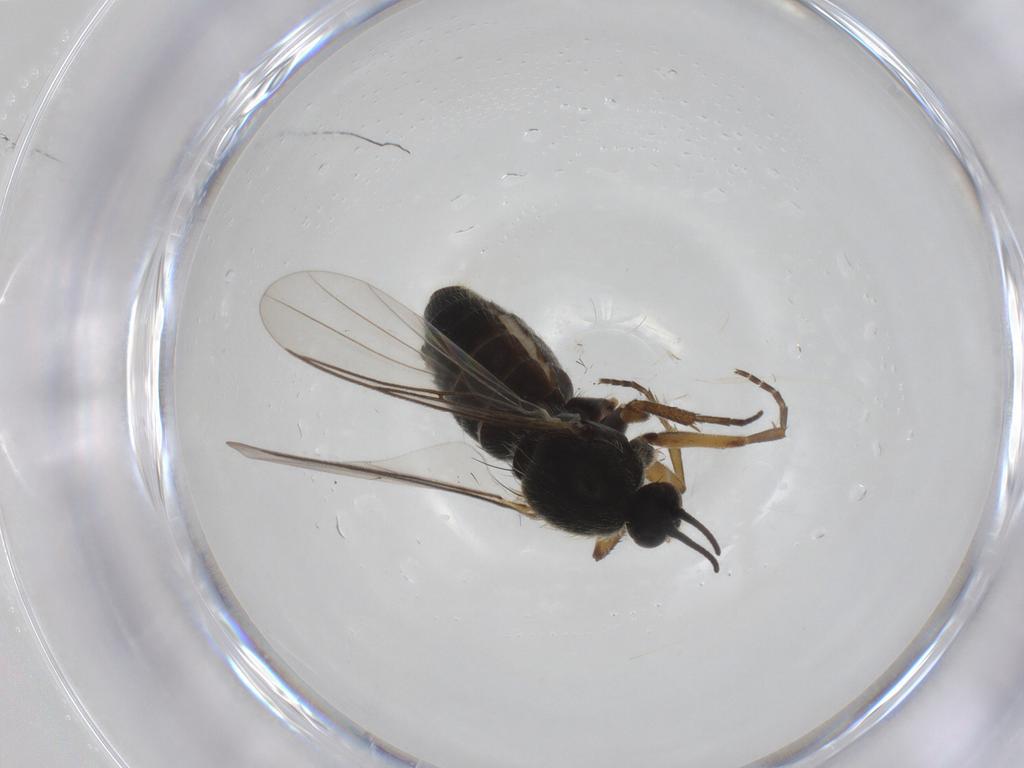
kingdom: Animalia
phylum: Arthropoda
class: Insecta
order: Diptera
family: Mycetophilidae
